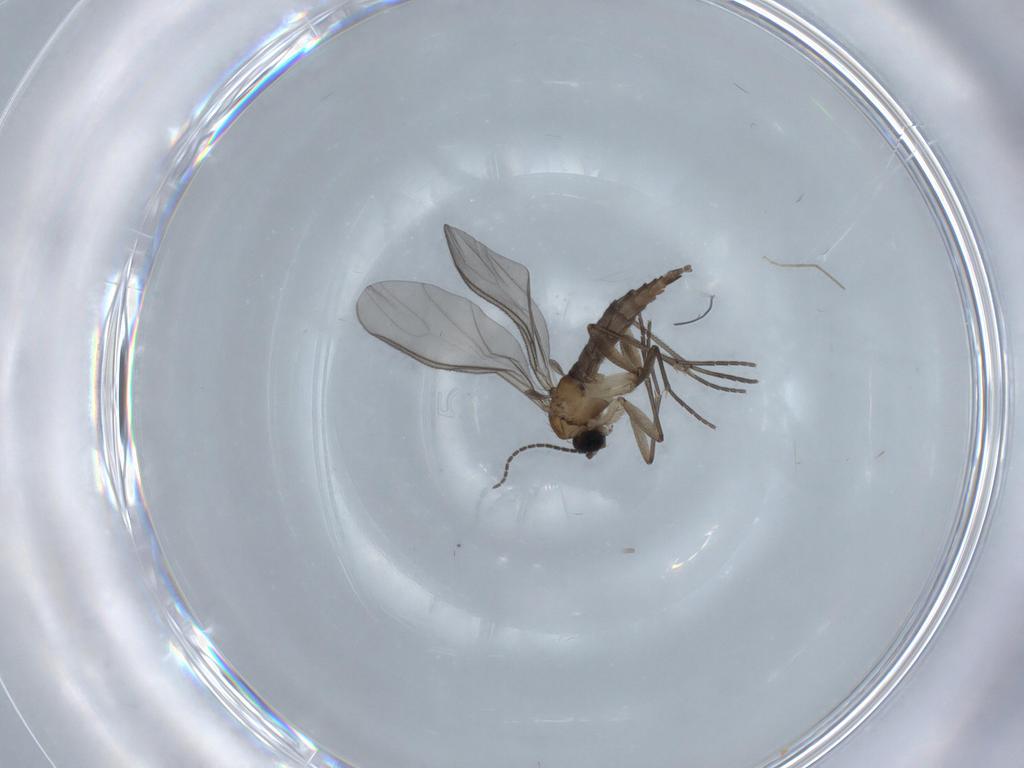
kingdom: Animalia
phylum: Arthropoda
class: Insecta
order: Diptera
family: Sciaridae
